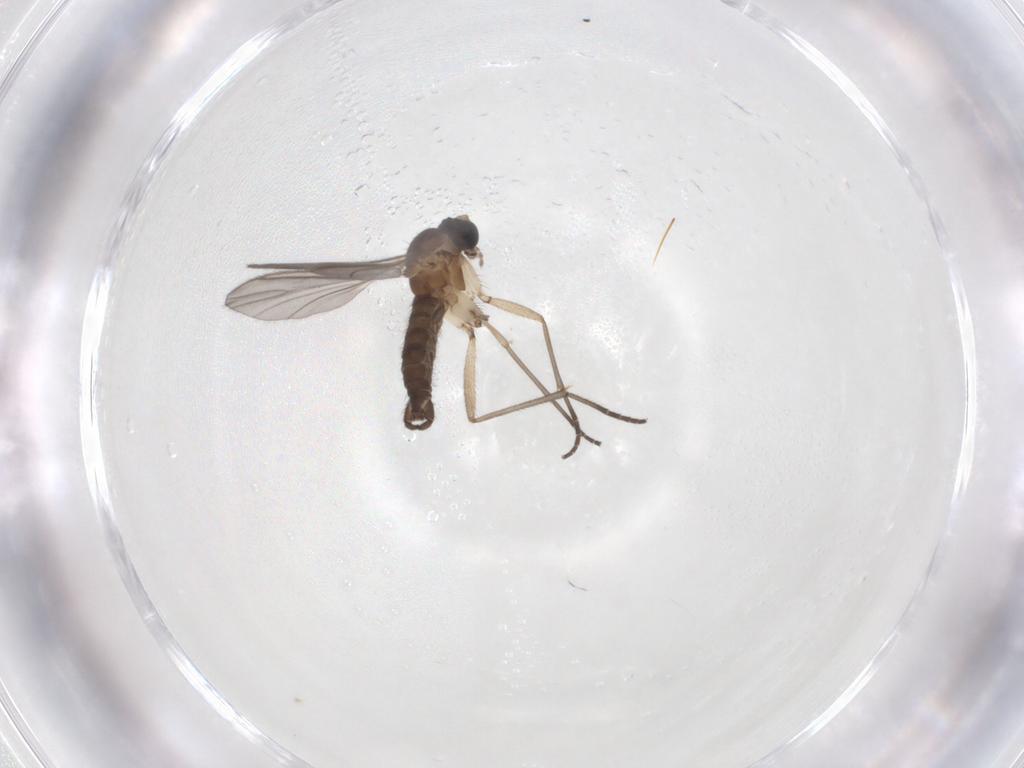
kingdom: Animalia
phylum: Arthropoda
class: Insecta
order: Diptera
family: Sciaridae
